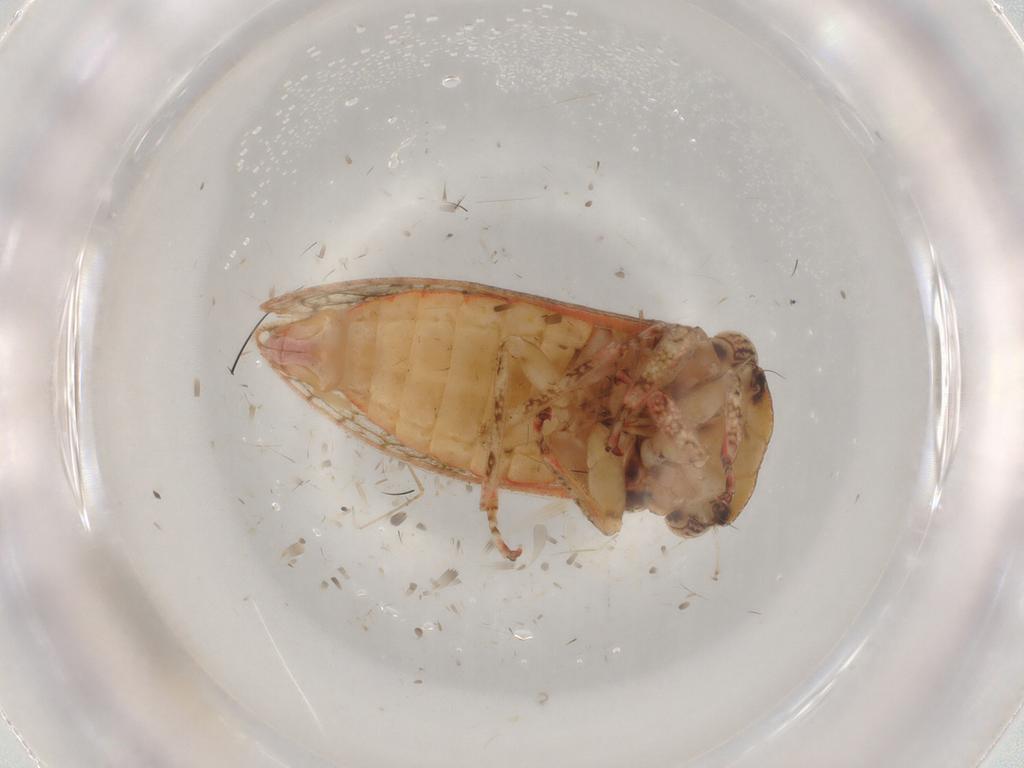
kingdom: Animalia
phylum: Arthropoda
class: Insecta
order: Hemiptera
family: Cicadellidae
